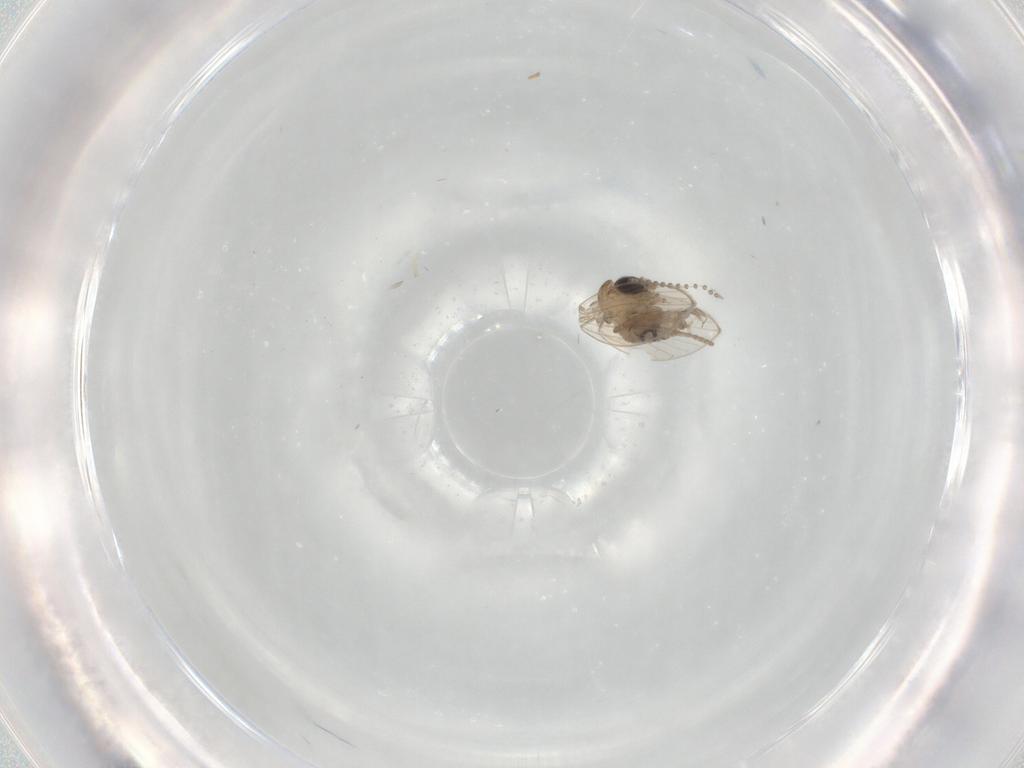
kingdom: Animalia
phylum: Arthropoda
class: Insecta
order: Diptera
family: Psychodidae
